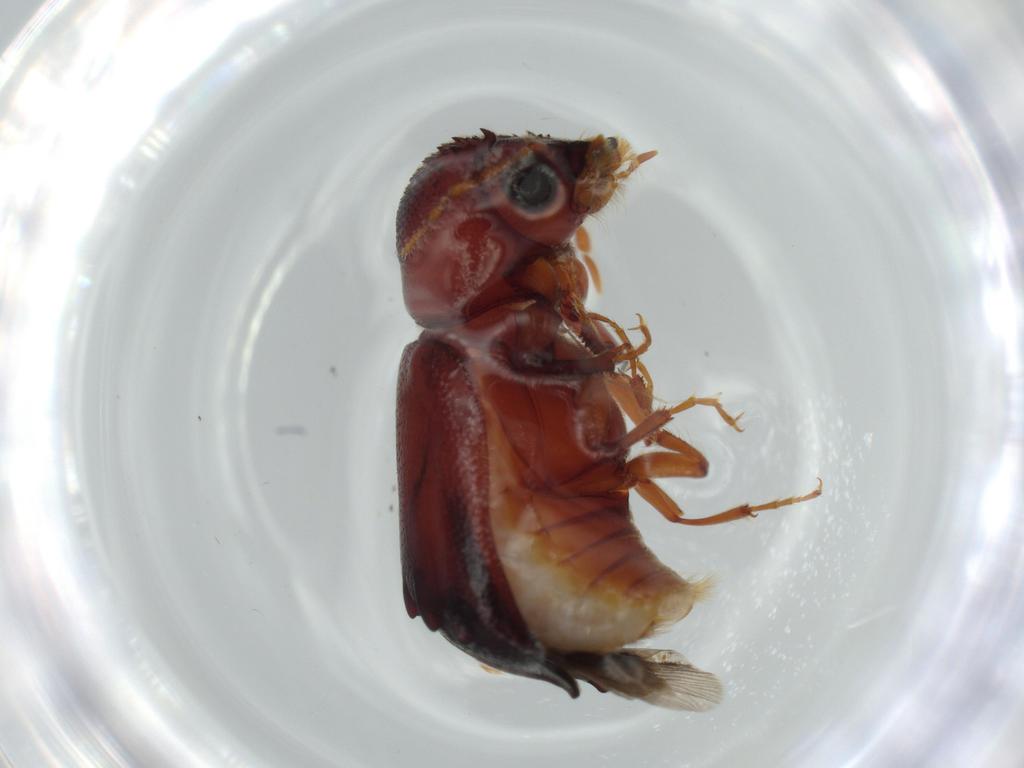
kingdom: Animalia
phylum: Arthropoda
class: Insecta
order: Coleoptera
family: Bostrichidae
